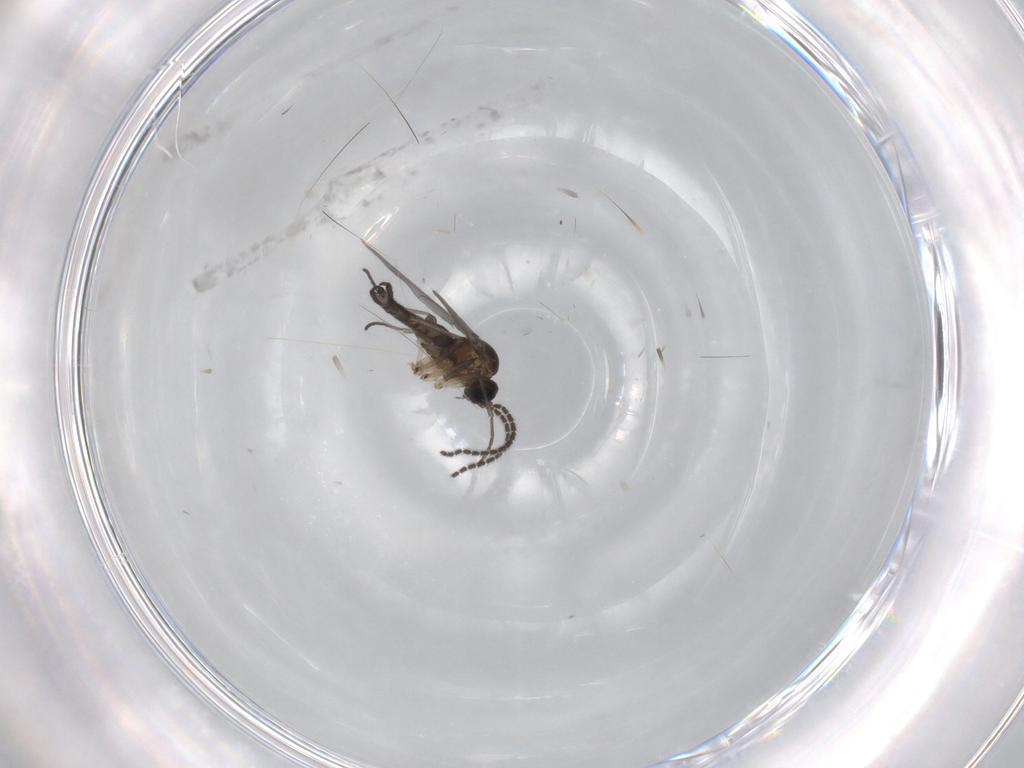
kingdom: Animalia
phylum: Arthropoda
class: Insecta
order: Diptera
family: Sciaridae
